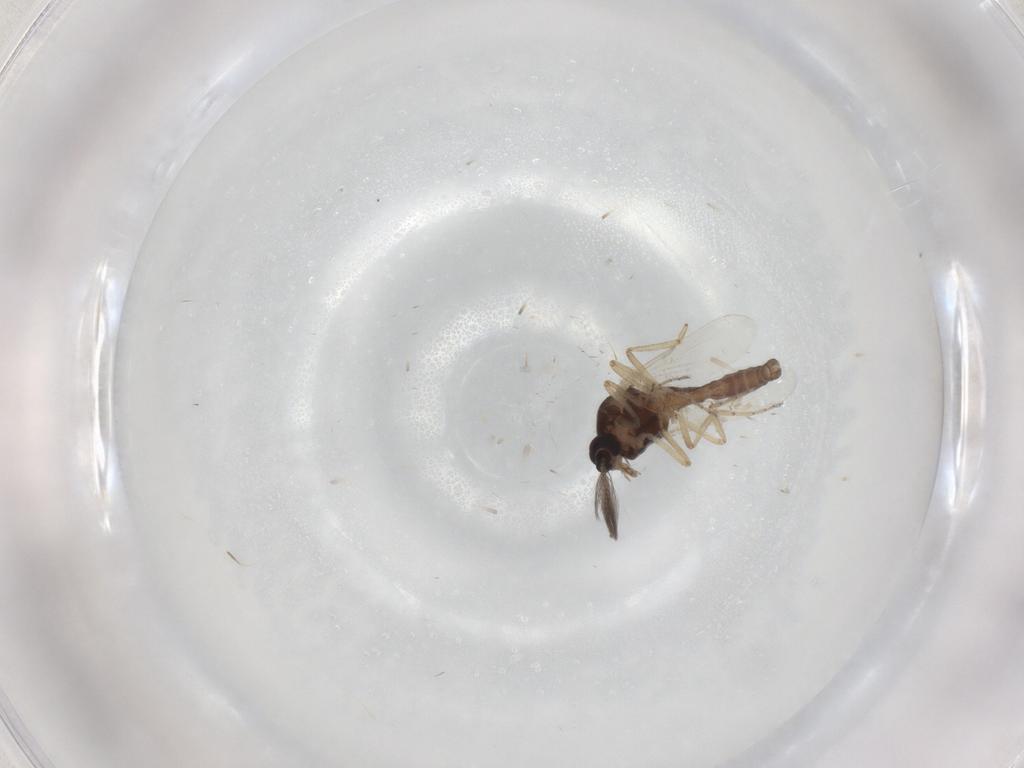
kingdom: Animalia
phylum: Arthropoda
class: Insecta
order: Diptera
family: Ceratopogonidae
